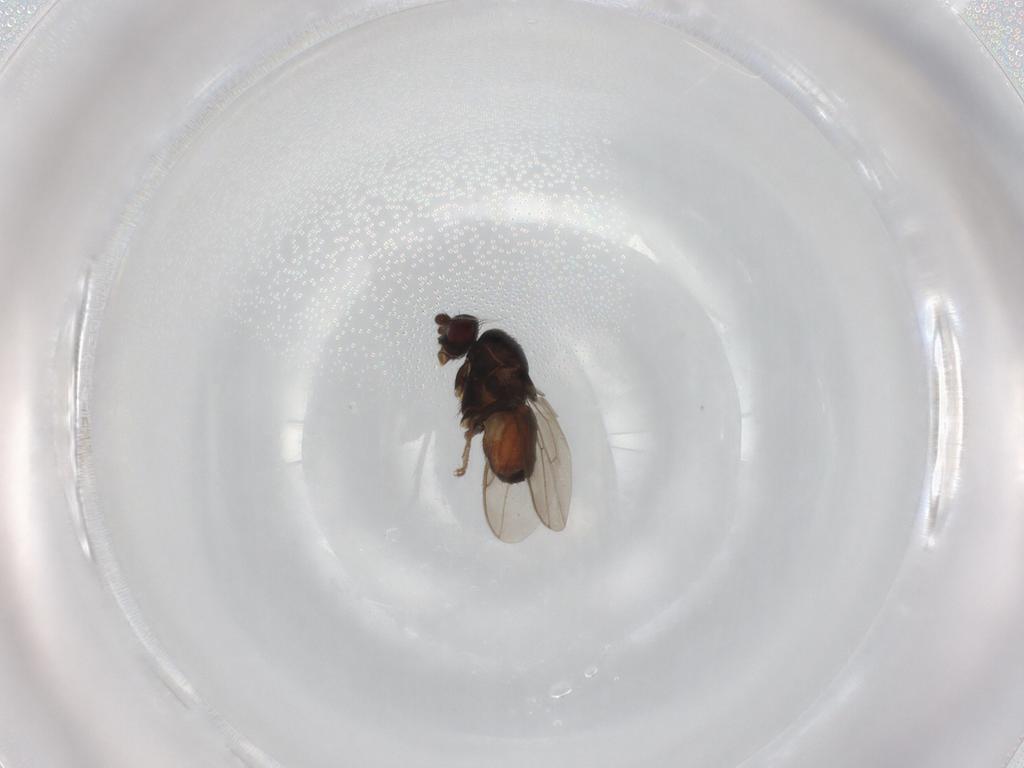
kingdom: Animalia
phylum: Arthropoda
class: Insecta
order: Diptera
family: Sphaeroceridae
